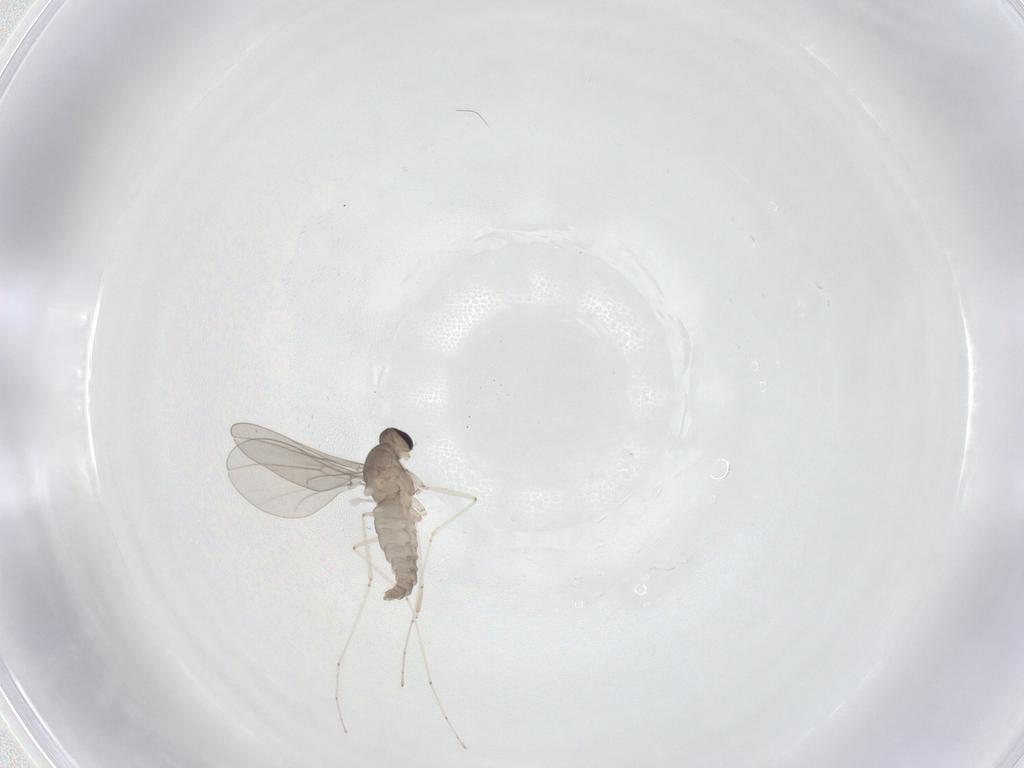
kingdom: Animalia
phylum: Arthropoda
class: Insecta
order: Diptera
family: Cecidomyiidae
